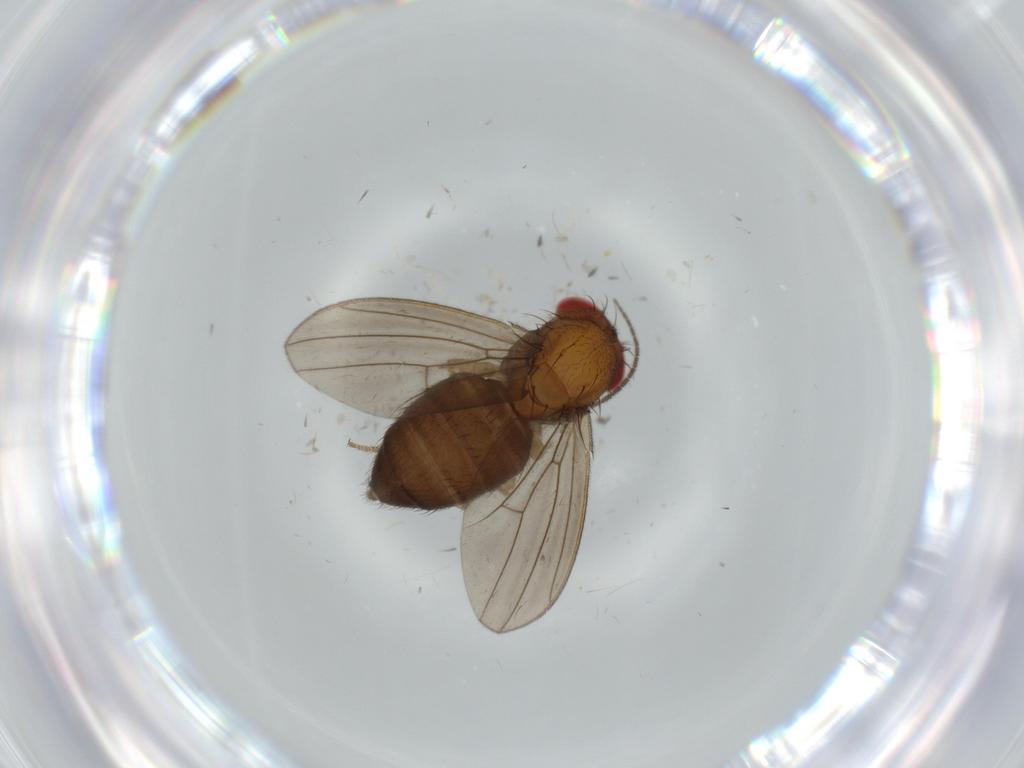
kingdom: Animalia
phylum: Arthropoda
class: Insecta
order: Diptera
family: Drosophilidae
